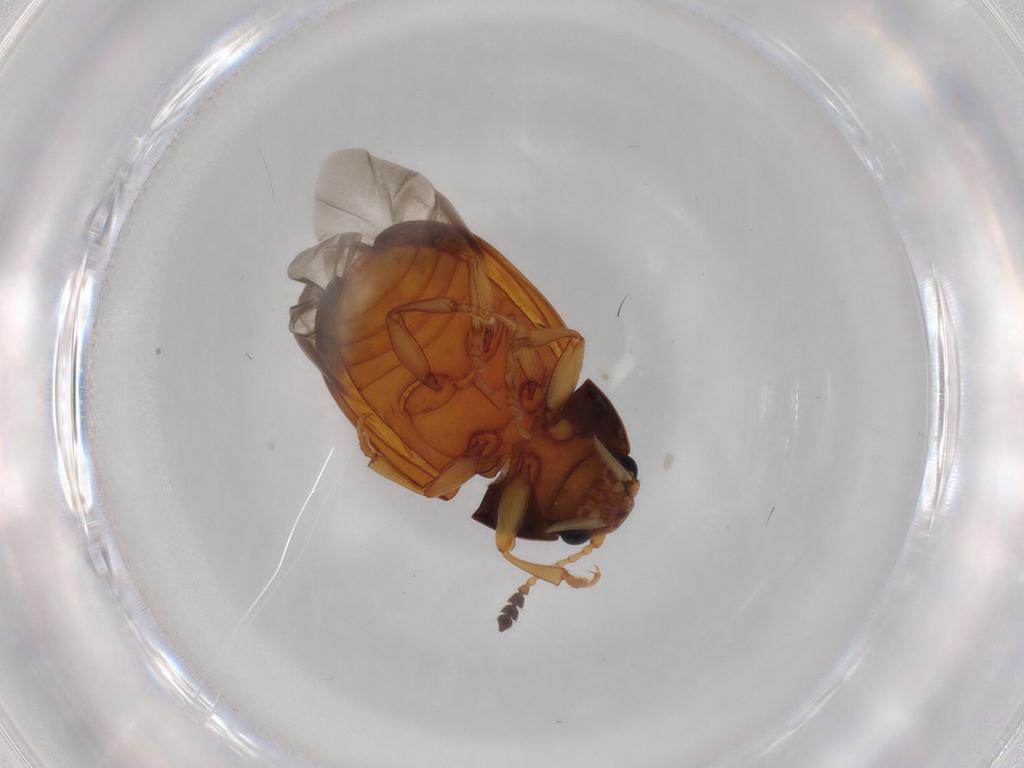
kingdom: Animalia
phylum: Arthropoda
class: Insecta
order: Coleoptera
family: Erotylidae
